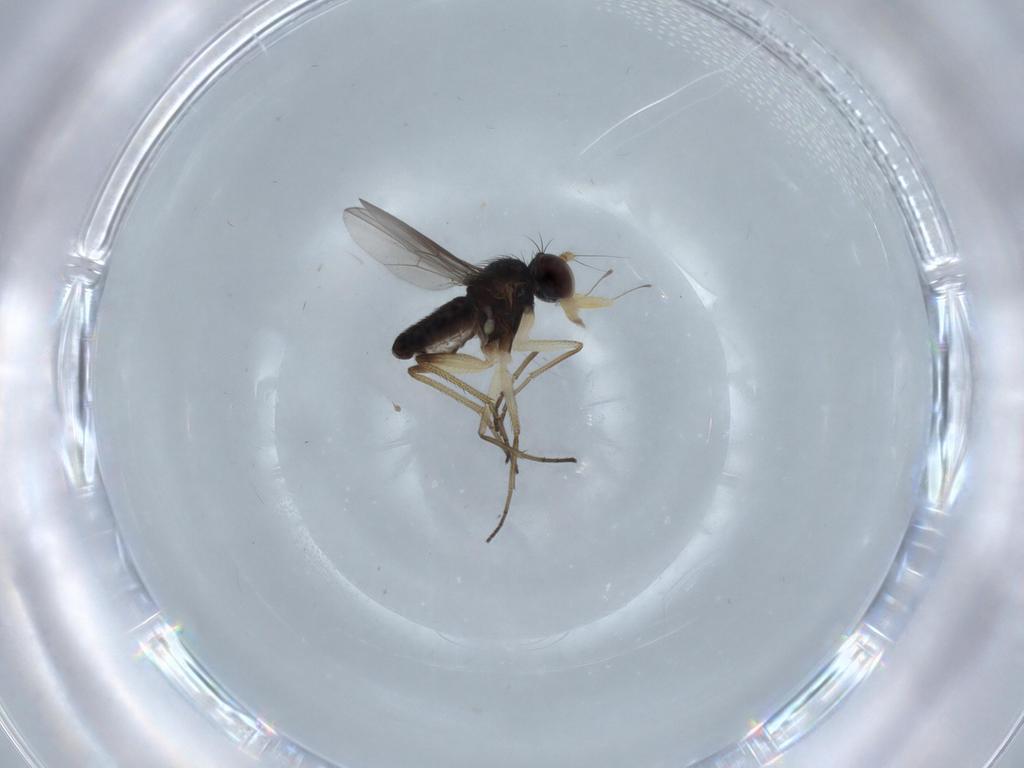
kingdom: Animalia
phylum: Arthropoda
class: Insecta
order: Diptera
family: Dolichopodidae
